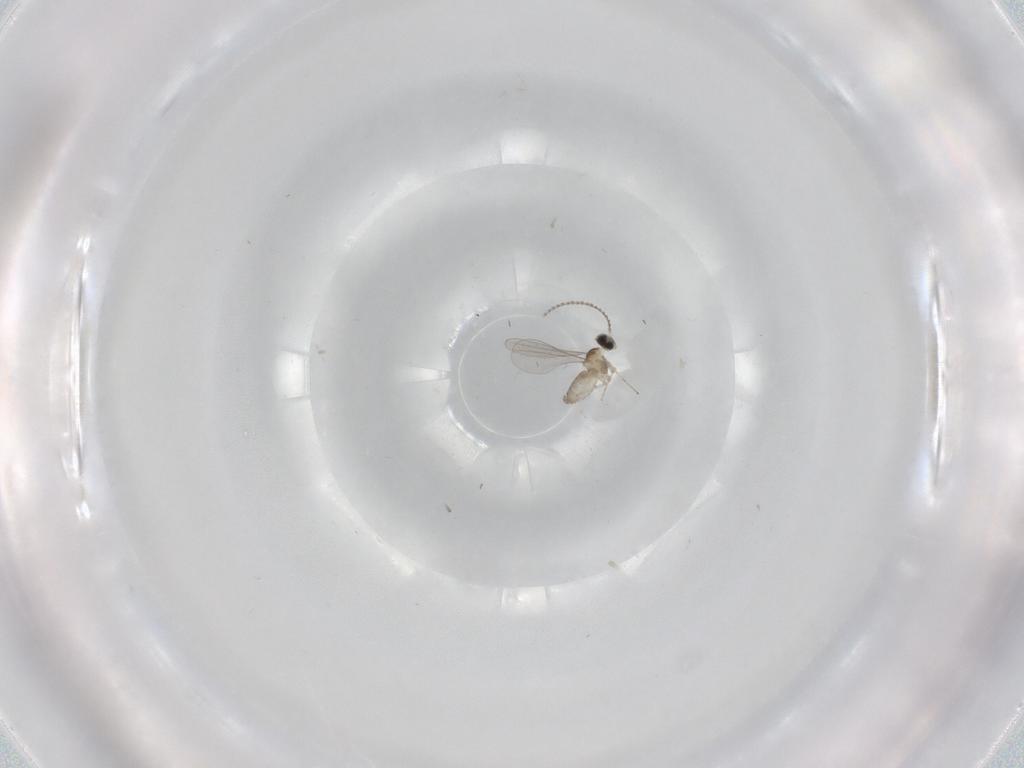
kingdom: Animalia
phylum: Arthropoda
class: Insecta
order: Diptera
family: Cecidomyiidae
